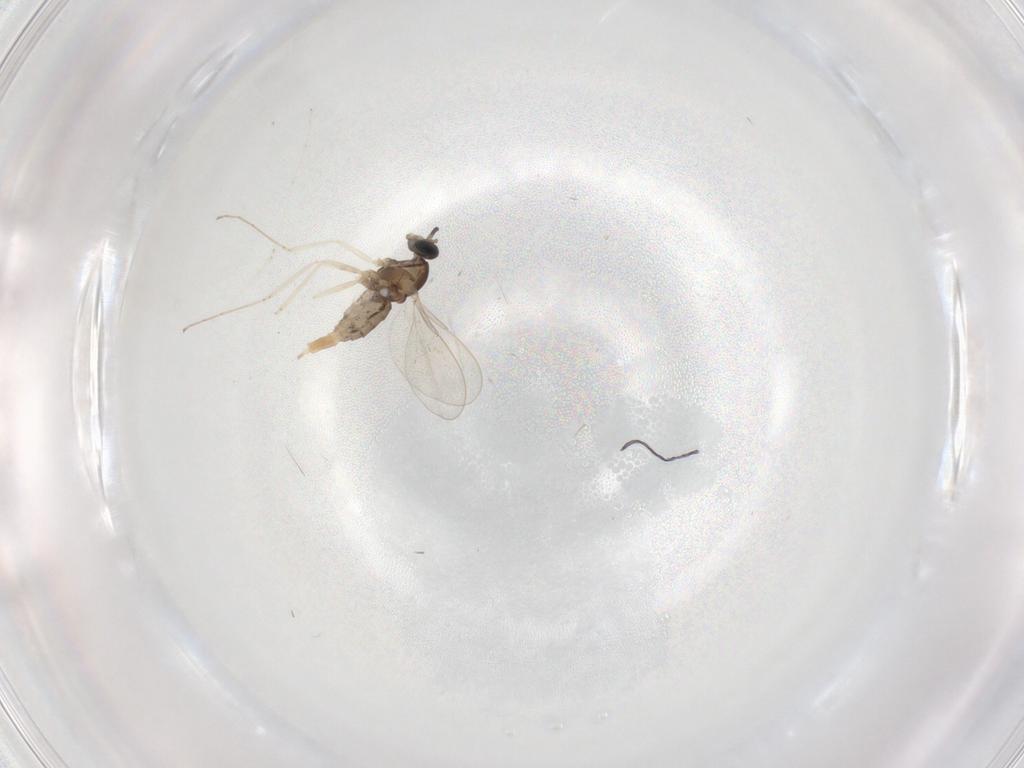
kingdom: Animalia
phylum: Arthropoda
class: Insecta
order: Diptera
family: Cecidomyiidae
